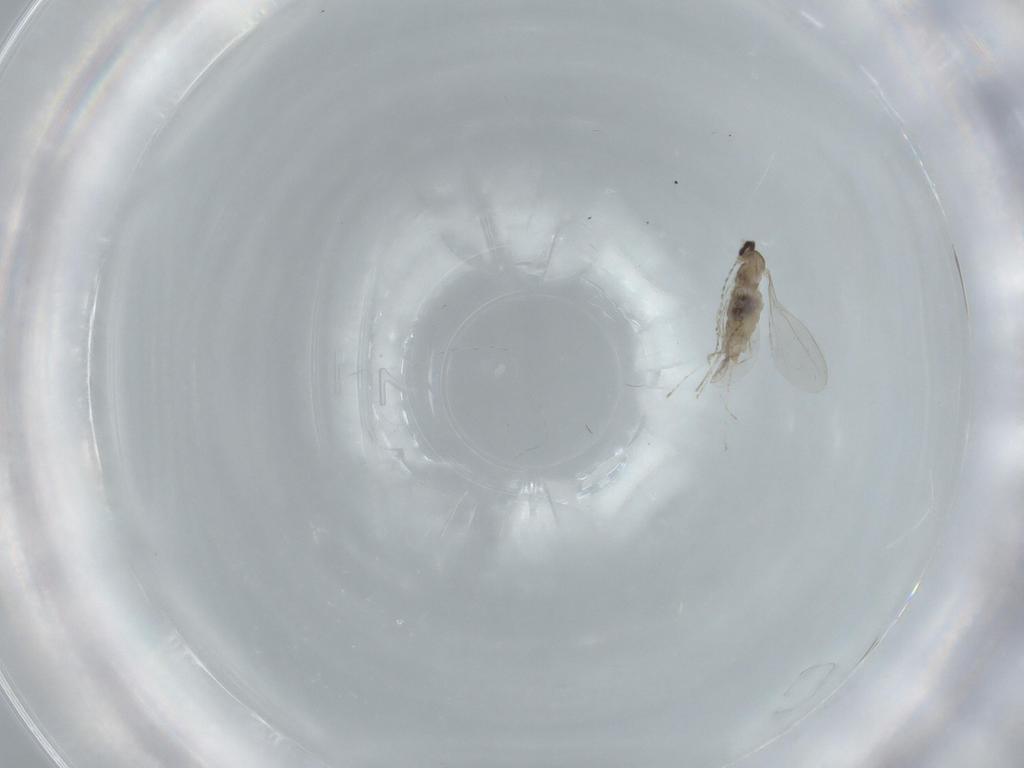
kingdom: Animalia
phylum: Arthropoda
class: Insecta
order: Diptera
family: Cecidomyiidae
